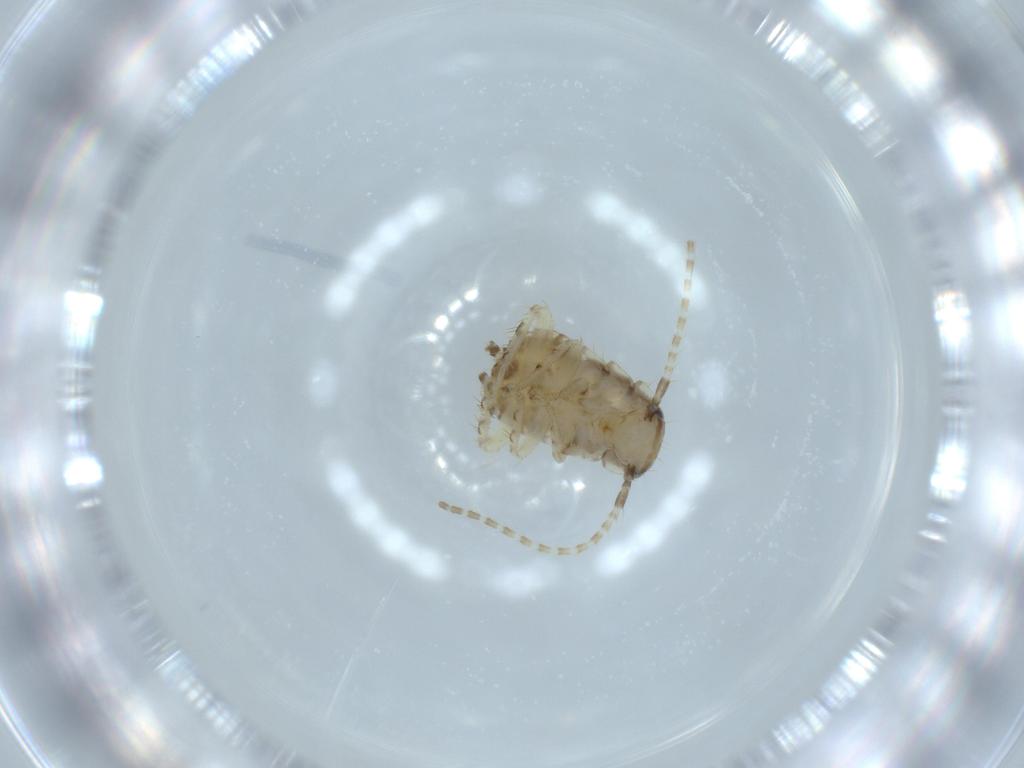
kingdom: Animalia
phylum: Arthropoda
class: Insecta
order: Blattodea
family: Ectobiidae
